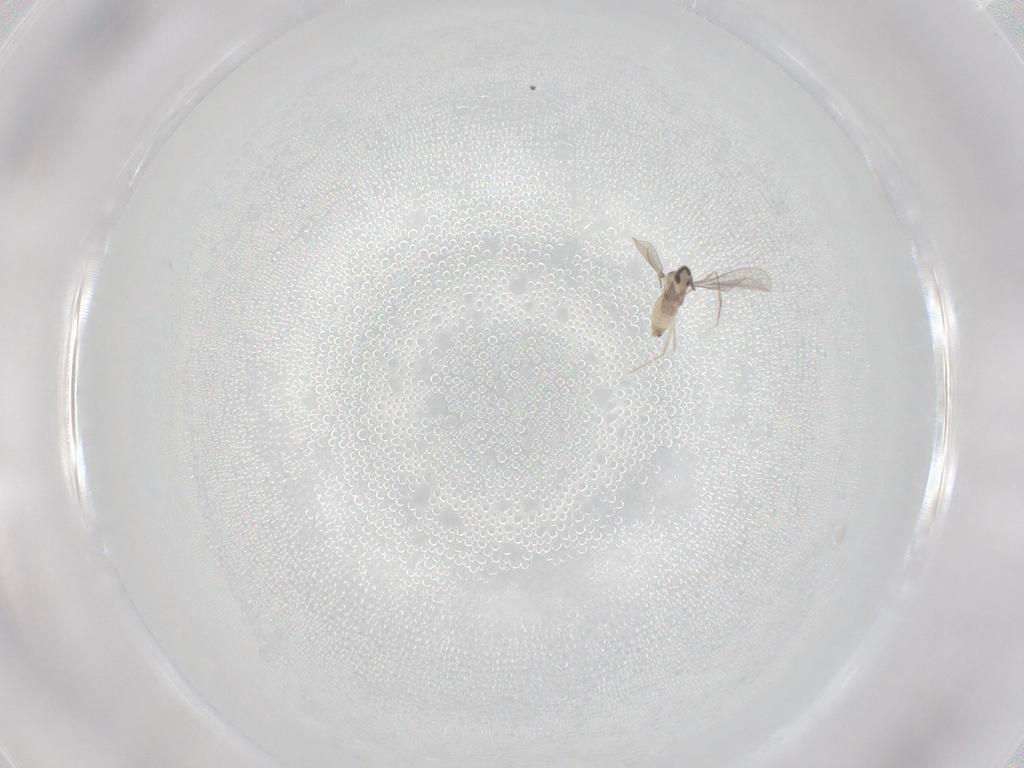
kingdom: Animalia
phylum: Arthropoda
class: Insecta
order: Diptera
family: Cecidomyiidae
